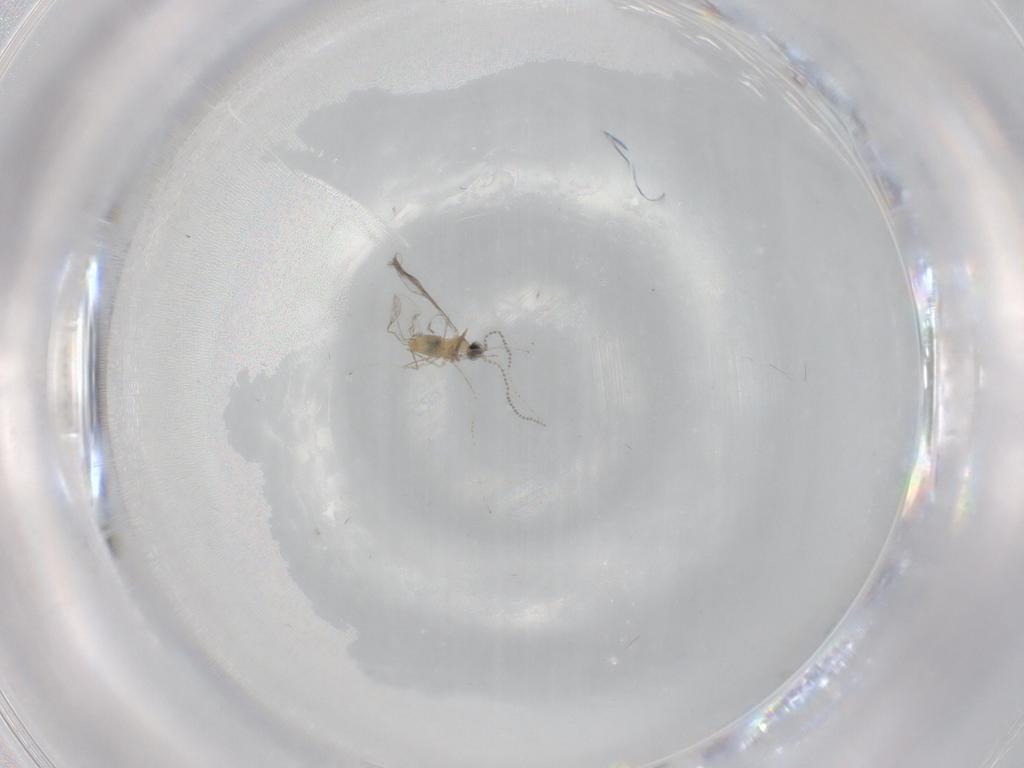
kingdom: Animalia
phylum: Arthropoda
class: Insecta
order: Diptera
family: Cecidomyiidae
